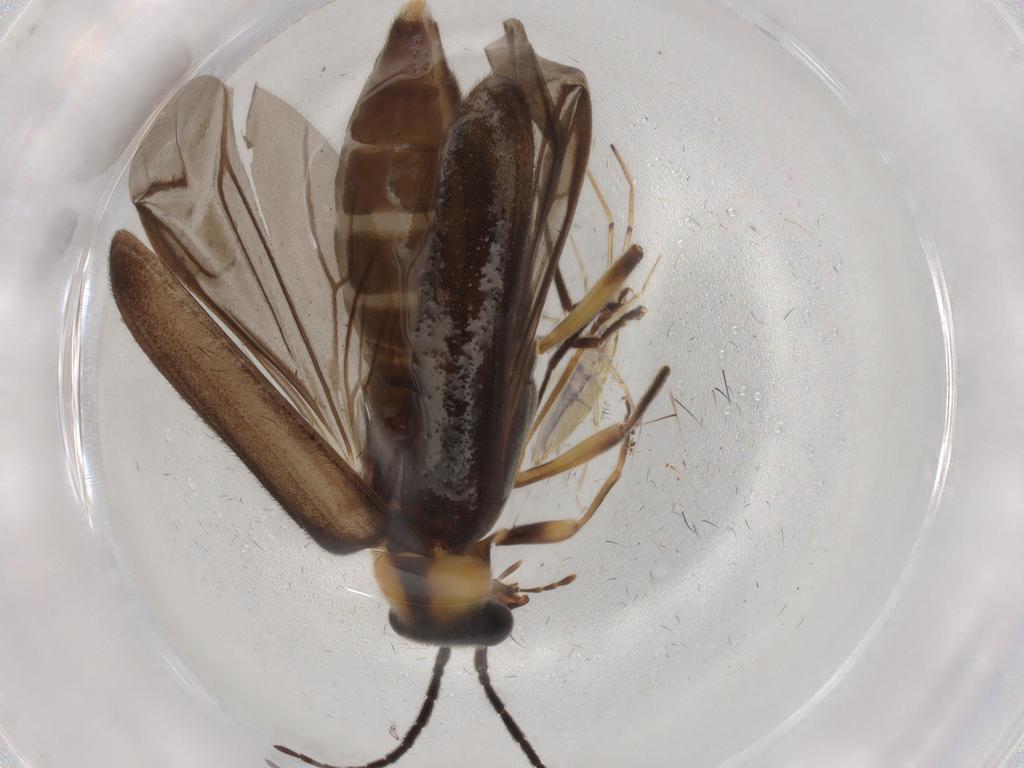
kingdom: Animalia
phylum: Arthropoda
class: Insecta
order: Coleoptera
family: Oedemeridae
